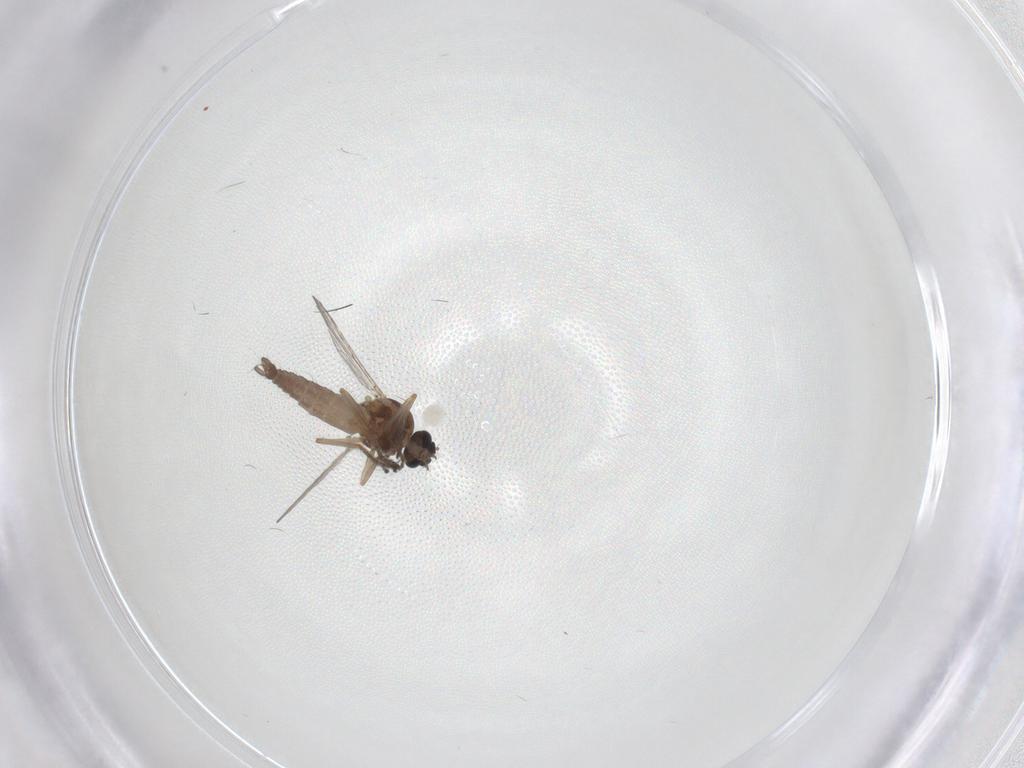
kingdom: Animalia
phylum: Arthropoda
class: Insecta
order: Diptera
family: Ceratopogonidae
